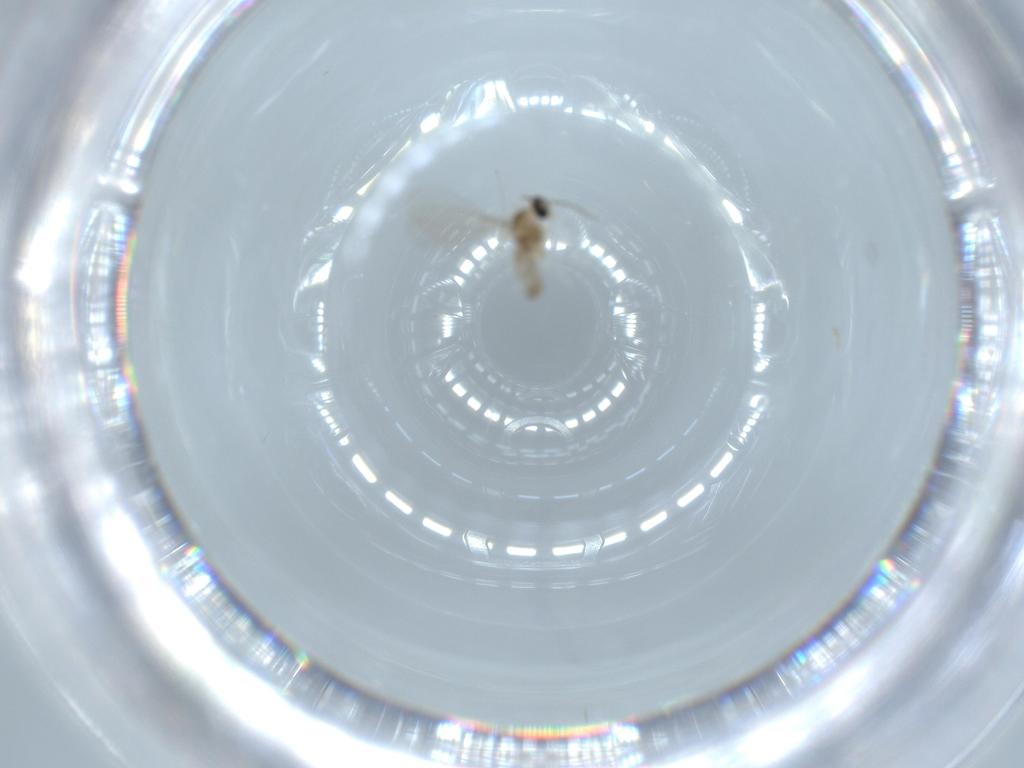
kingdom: Animalia
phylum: Arthropoda
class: Insecta
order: Diptera
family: Cecidomyiidae
